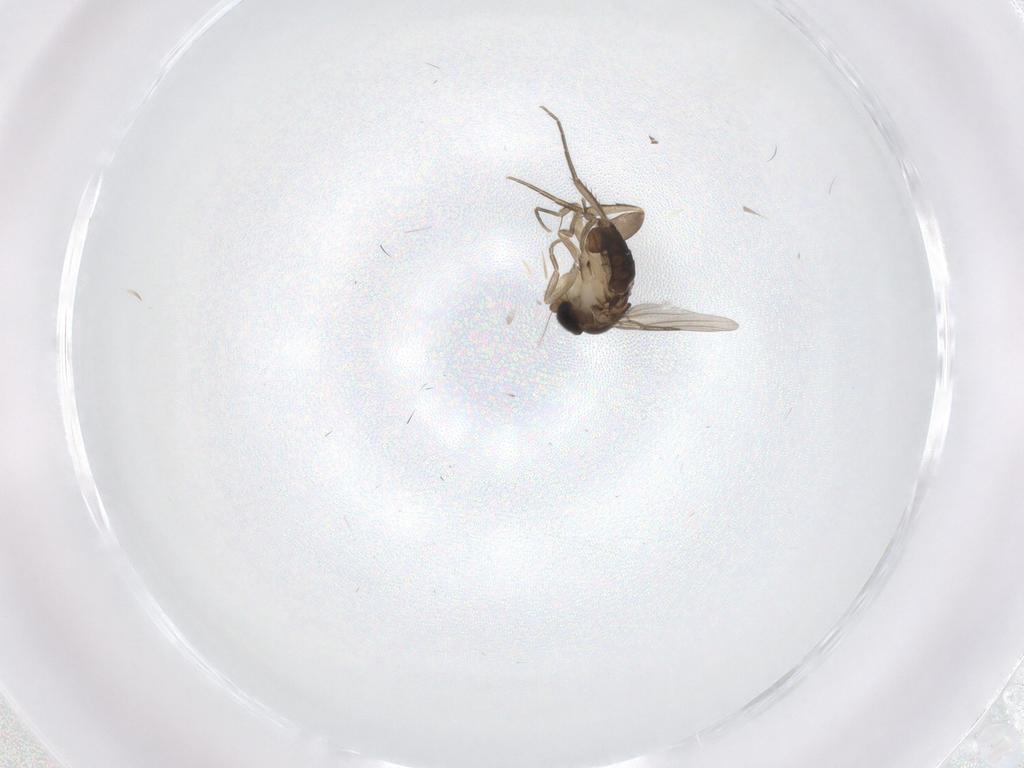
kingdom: Animalia
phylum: Arthropoda
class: Insecta
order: Diptera
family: Phoridae
